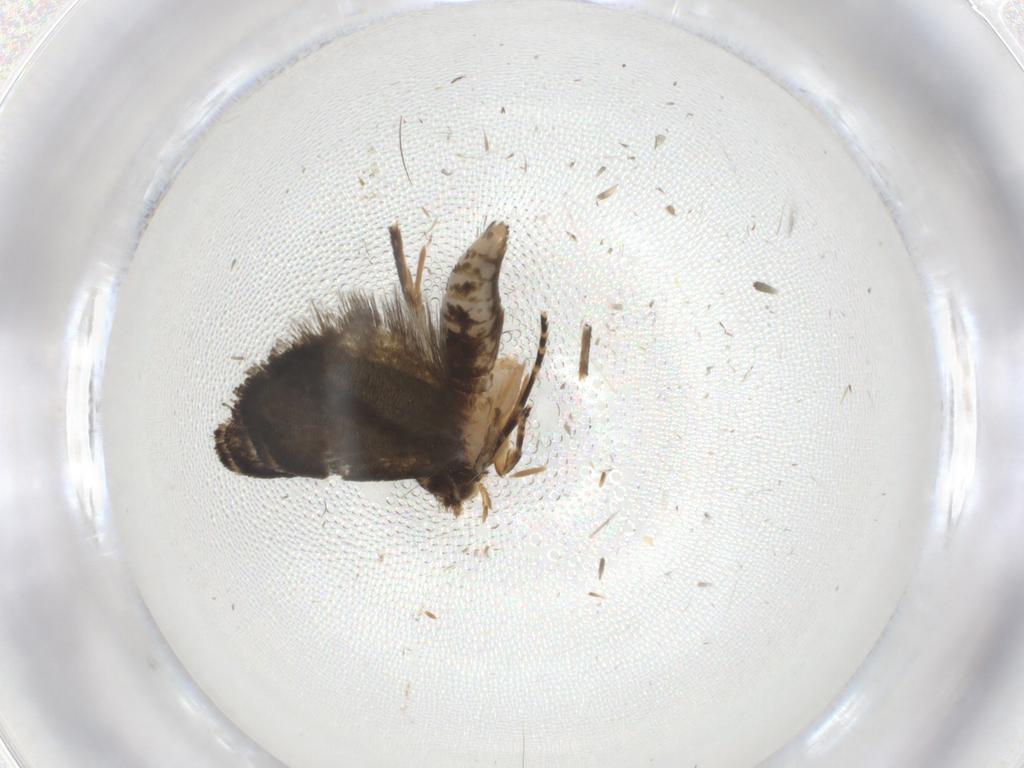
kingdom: Animalia
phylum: Arthropoda
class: Insecta
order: Lepidoptera
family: Crambidae
